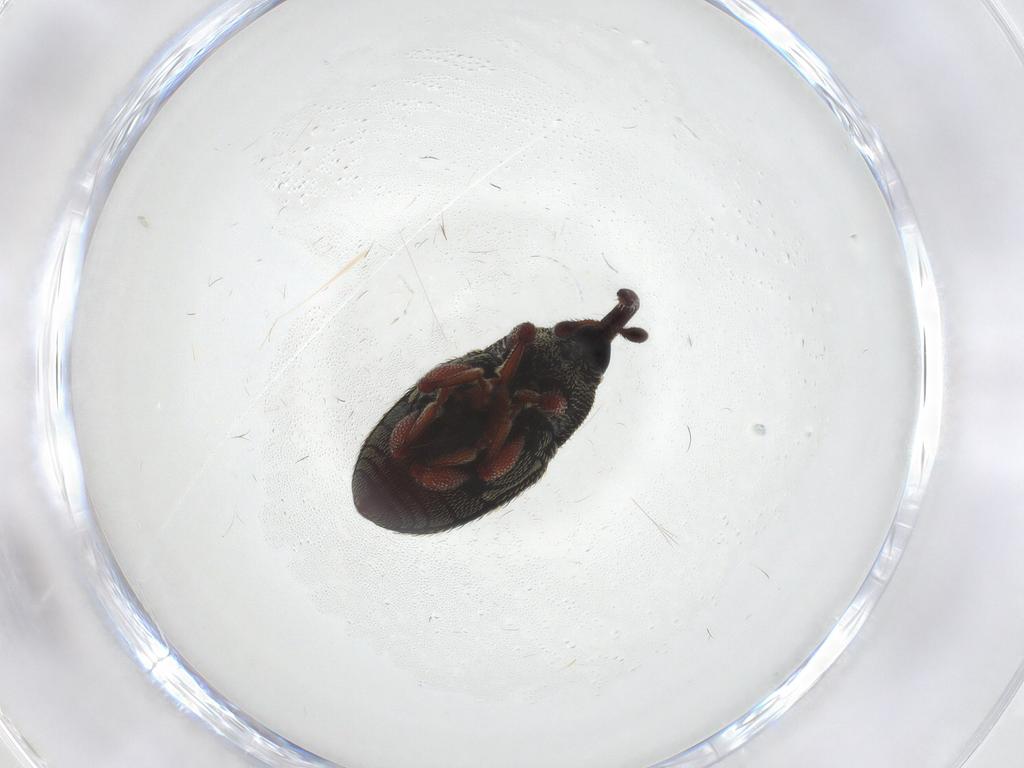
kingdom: Animalia
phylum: Arthropoda
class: Insecta
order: Coleoptera
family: Curculionidae
